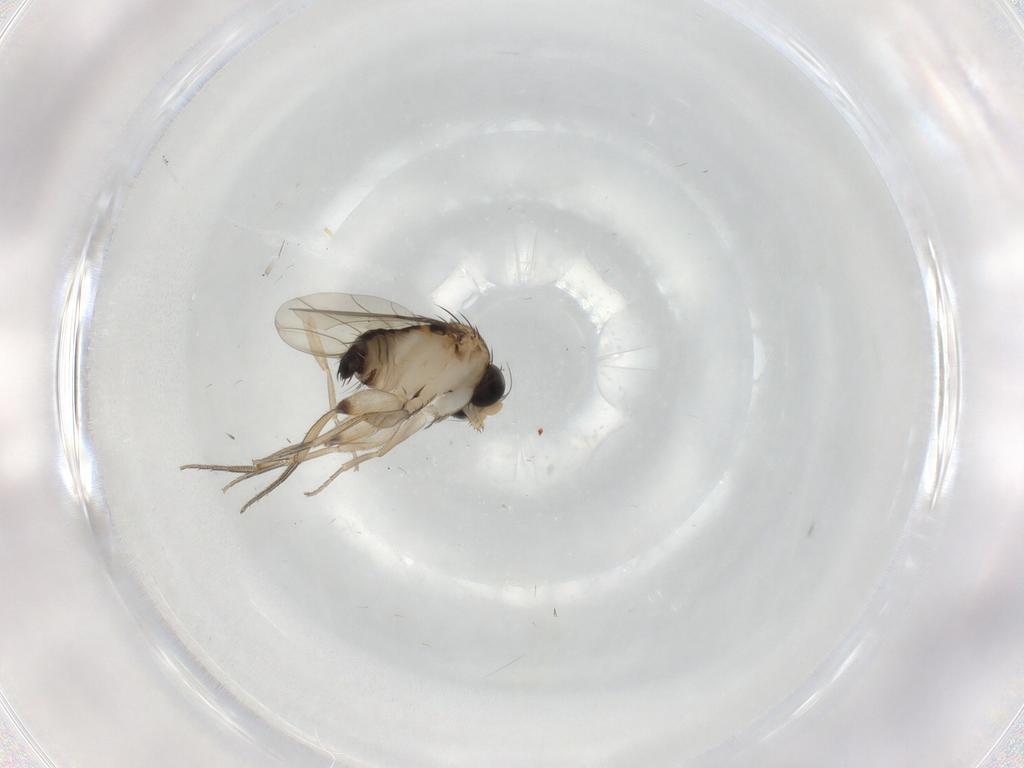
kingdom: Animalia
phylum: Arthropoda
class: Insecta
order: Diptera
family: Phoridae
